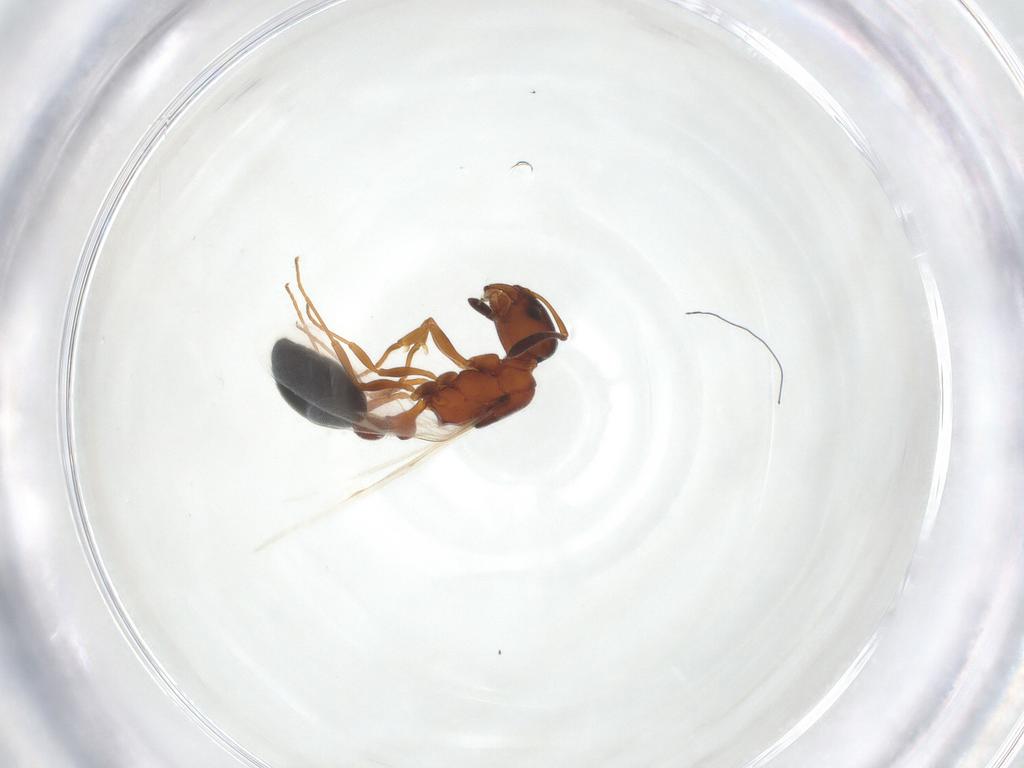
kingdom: Animalia
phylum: Arthropoda
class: Insecta
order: Hymenoptera
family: Formicidae
